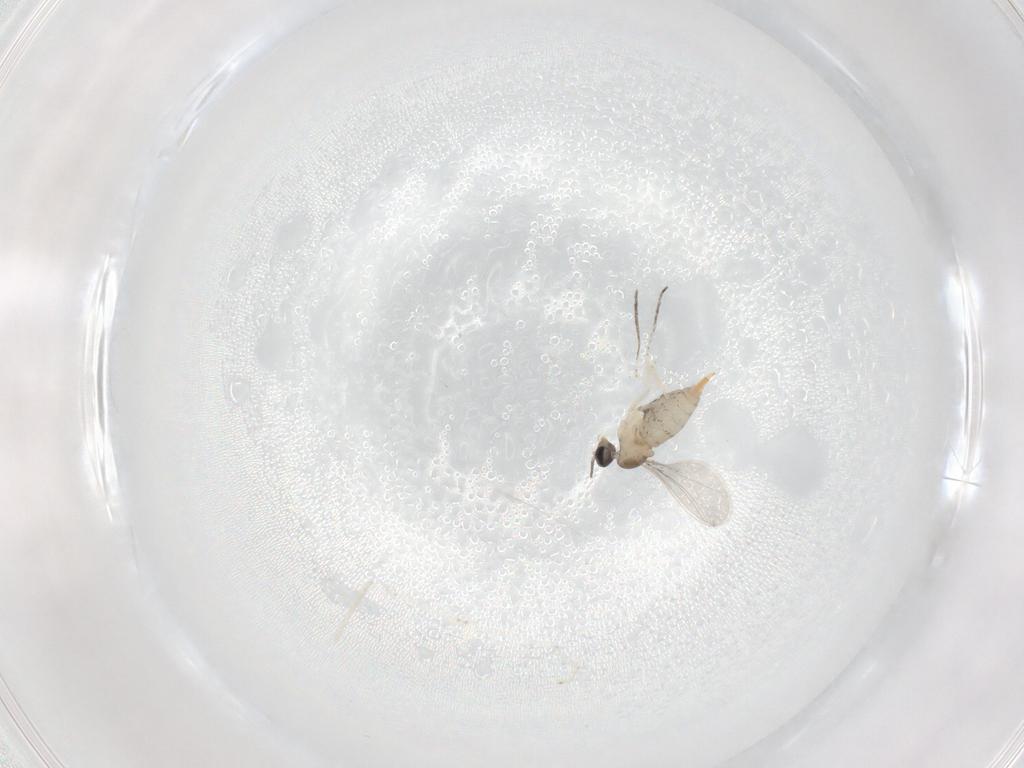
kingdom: Animalia
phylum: Arthropoda
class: Insecta
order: Diptera
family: Cecidomyiidae
